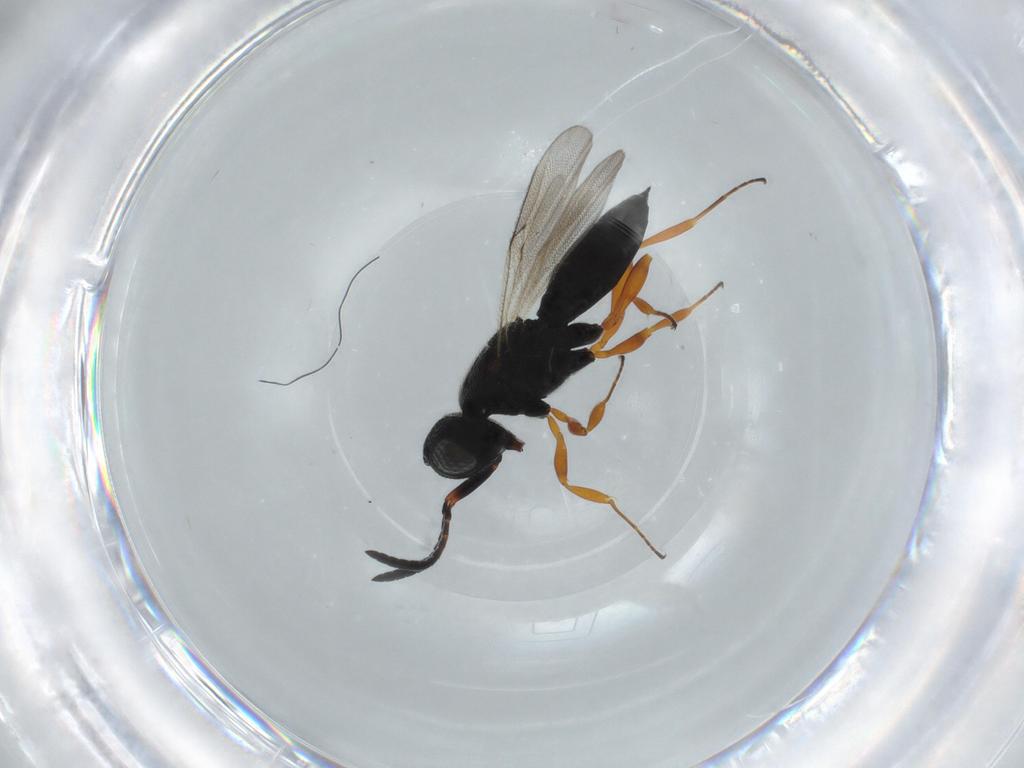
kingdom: Animalia
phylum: Arthropoda
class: Insecta
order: Hymenoptera
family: Scelionidae
